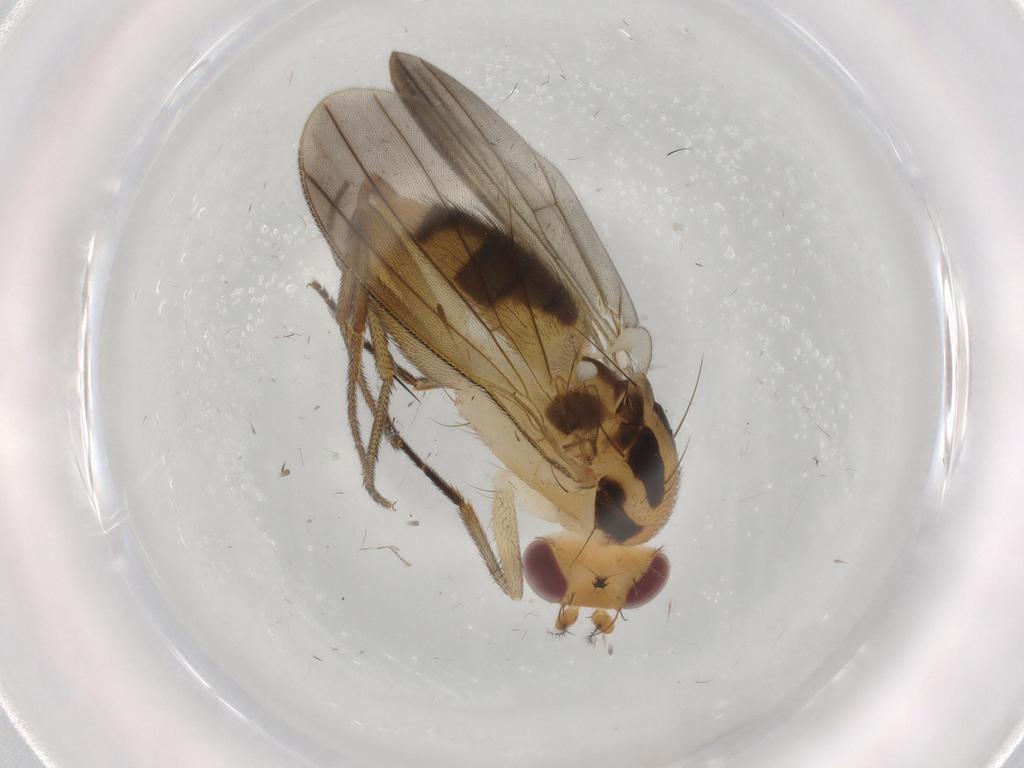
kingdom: Animalia
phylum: Arthropoda
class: Insecta
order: Diptera
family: Clusiidae
